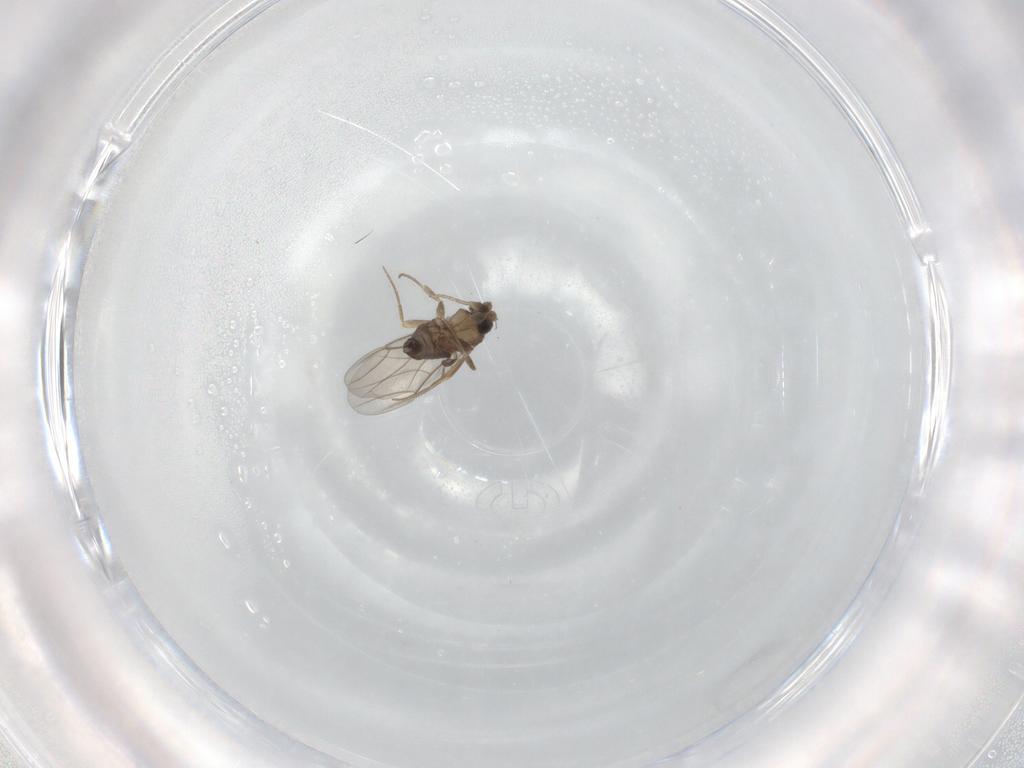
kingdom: Animalia
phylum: Arthropoda
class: Insecta
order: Diptera
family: Phoridae
